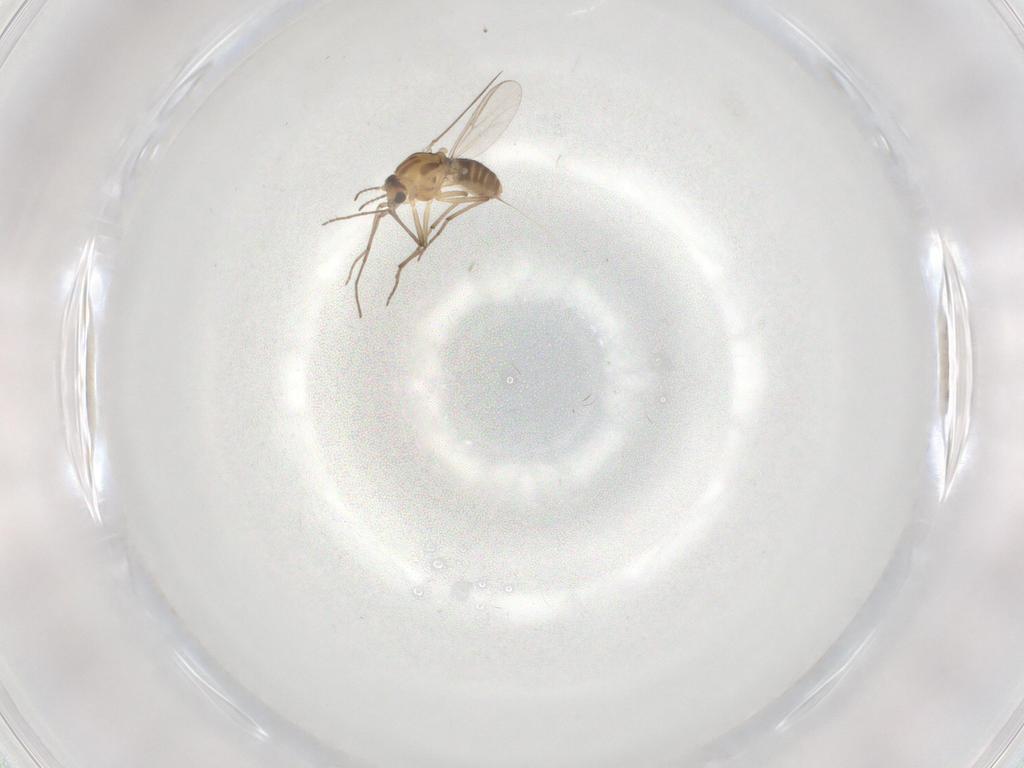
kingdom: Animalia
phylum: Arthropoda
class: Insecta
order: Diptera
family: Chironomidae
